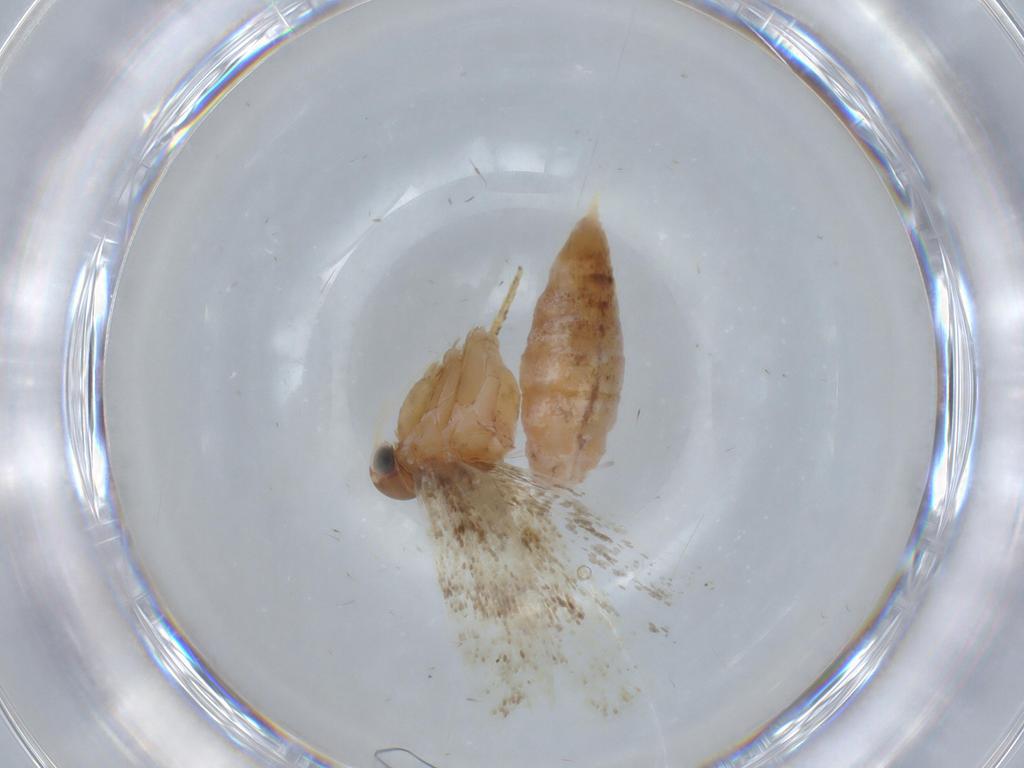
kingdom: Animalia
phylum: Arthropoda
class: Insecta
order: Lepidoptera
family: Gelechiidae
